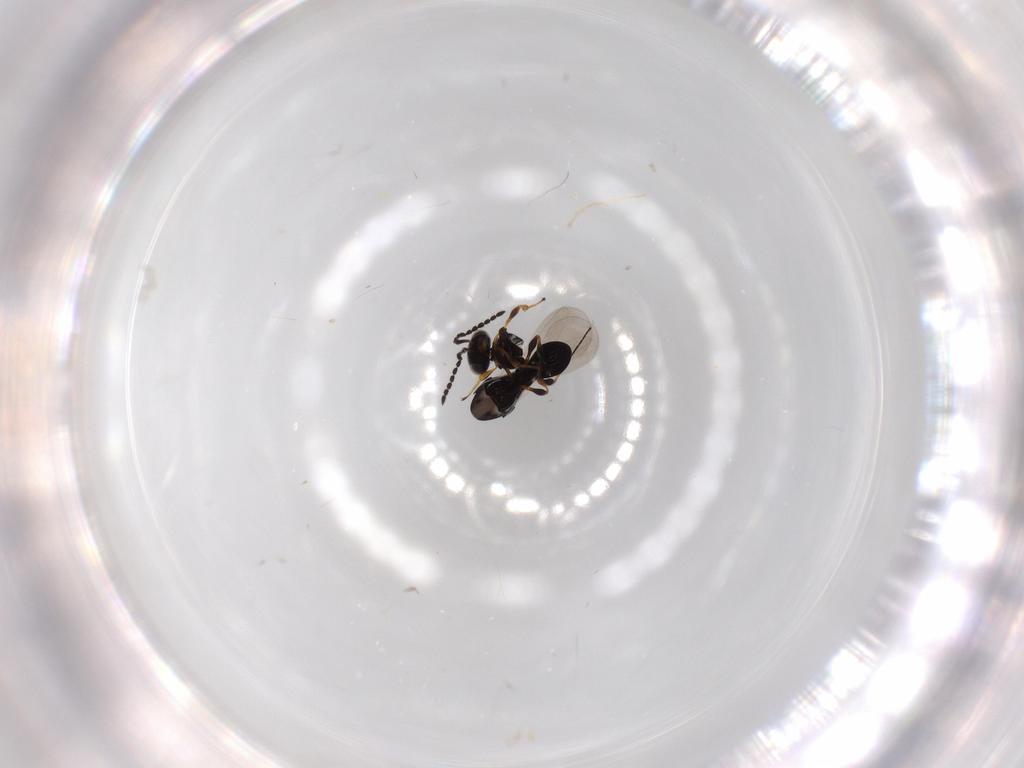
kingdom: Animalia
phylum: Arthropoda
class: Insecta
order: Hymenoptera
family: Platygastridae
